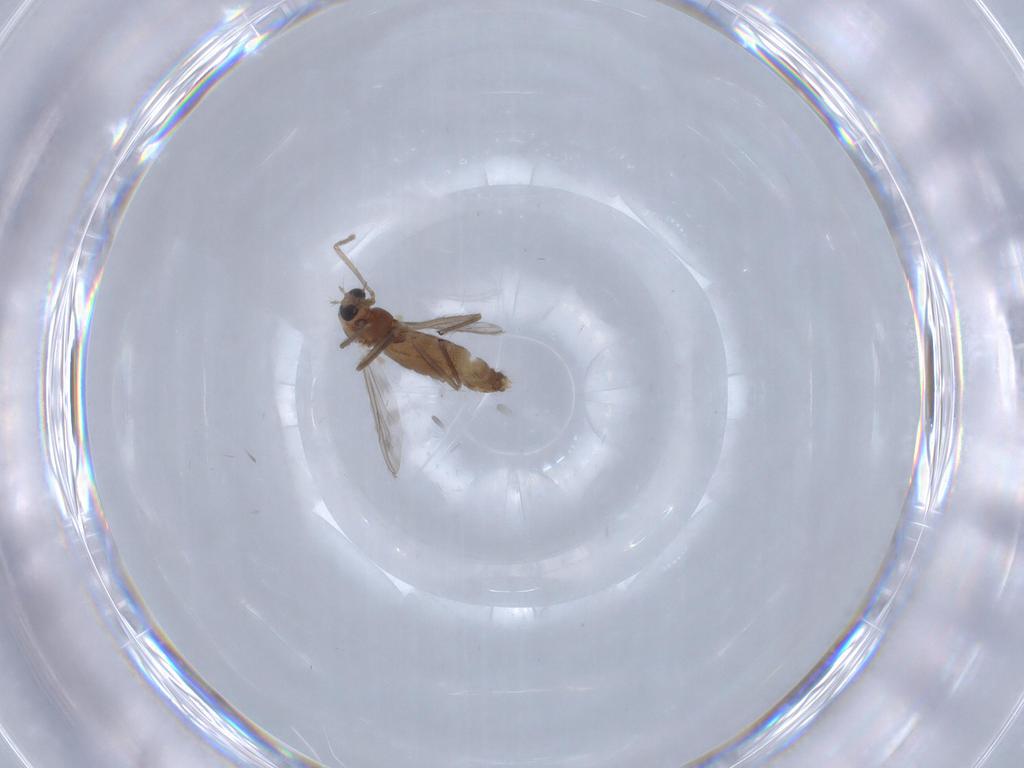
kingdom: Animalia
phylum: Arthropoda
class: Insecta
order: Diptera
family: Chironomidae
